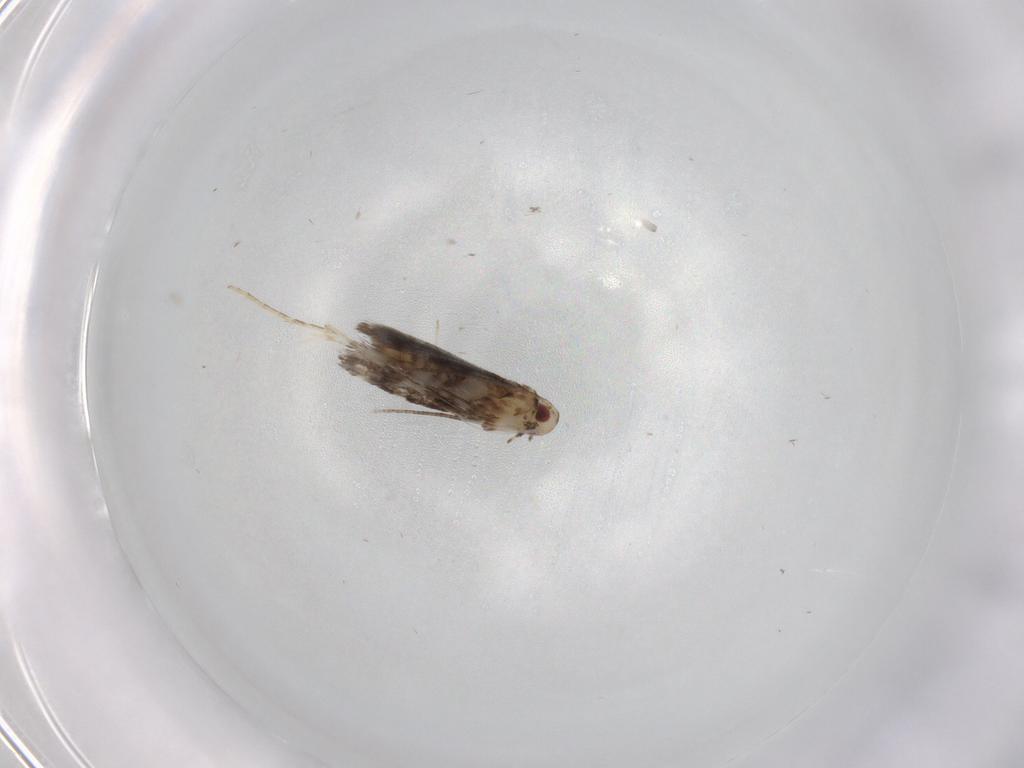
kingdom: Animalia
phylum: Arthropoda
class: Insecta
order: Lepidoptera
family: Gracillariidae
